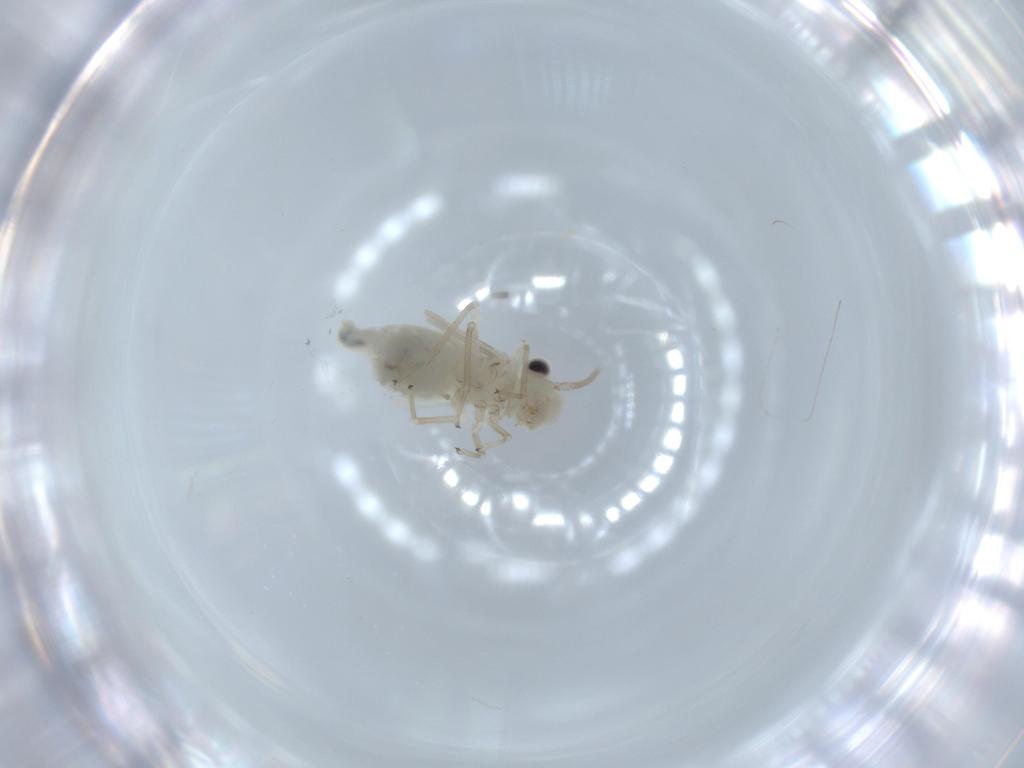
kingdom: Animalia
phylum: Arthropoda
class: Insecta
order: Psocodea
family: Caeciliusidae
